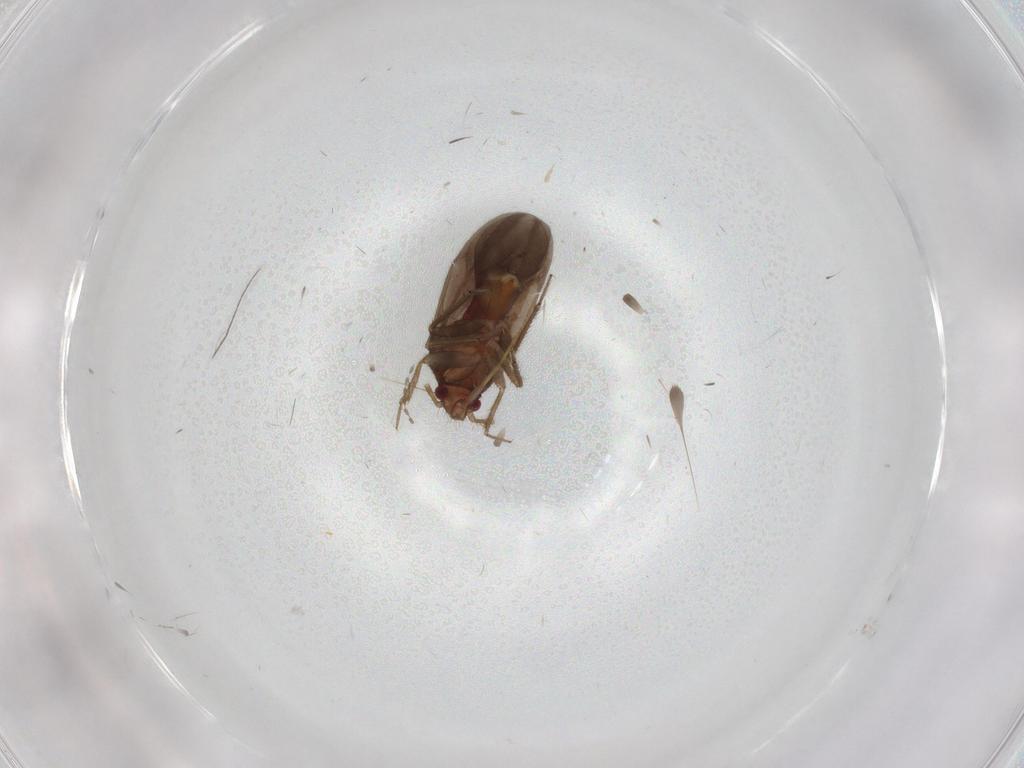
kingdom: Animalia
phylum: Arthropoda
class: Insecta
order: Hemiptera
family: Ceratocombidae
